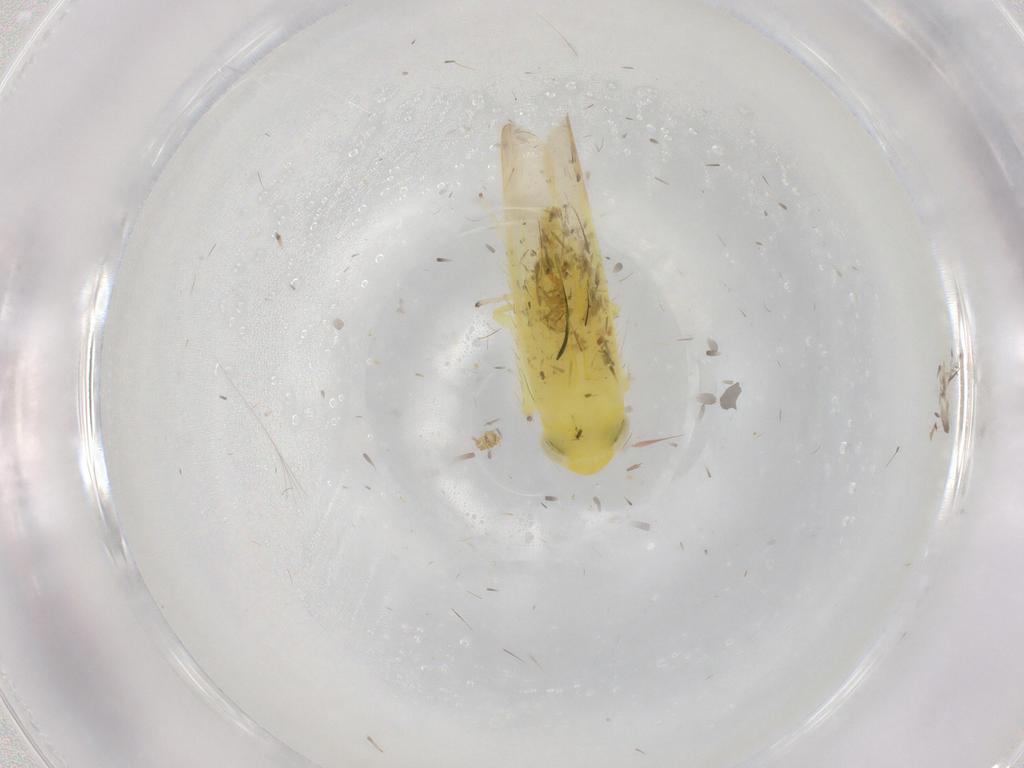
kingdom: Animalia
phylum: Arthropoda
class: Insecta
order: Hemiptera
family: Cicadellidae
